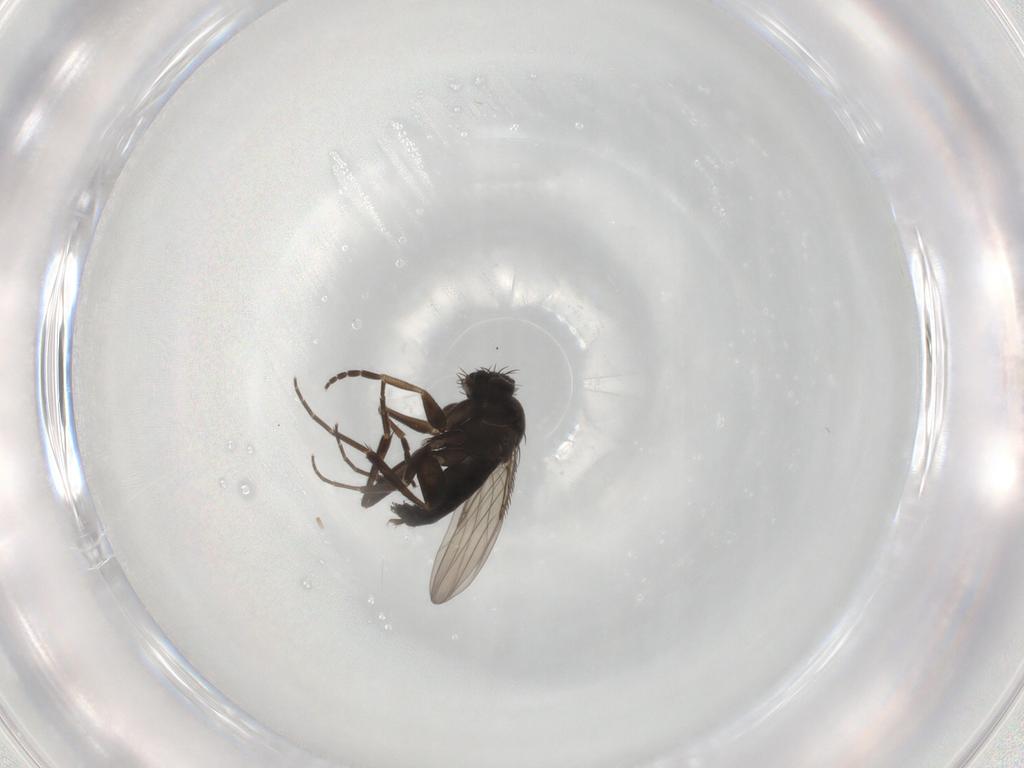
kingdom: Animalia
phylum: Arthropoda
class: Insecta
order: Diptera
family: Phoridae
